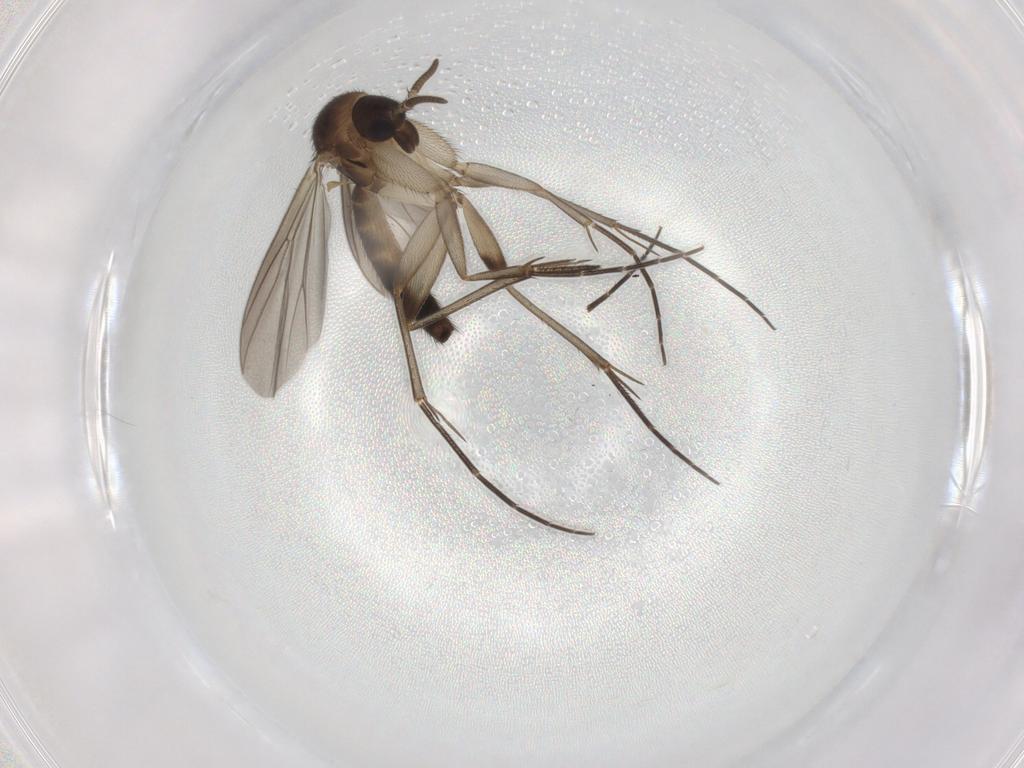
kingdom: Animalia
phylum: Arthropoda
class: Insecta
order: Diptera
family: Mycetophilidae
